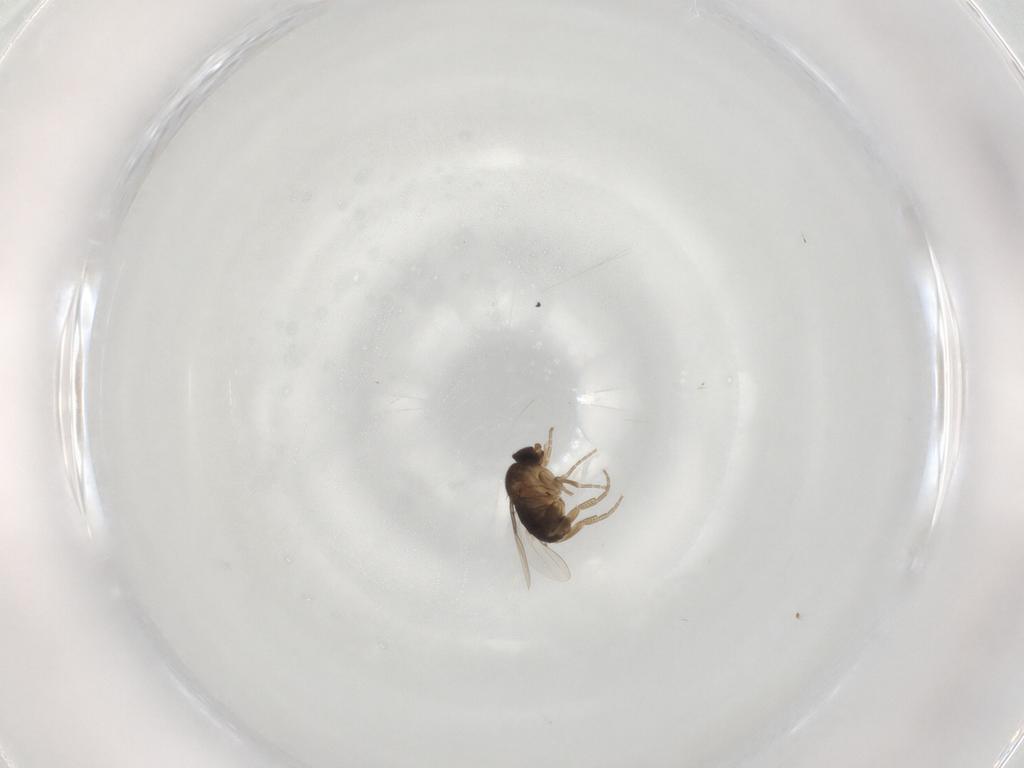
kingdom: Animalia
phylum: Arthropoda
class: Insecta
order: Diptera
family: Phoridae
